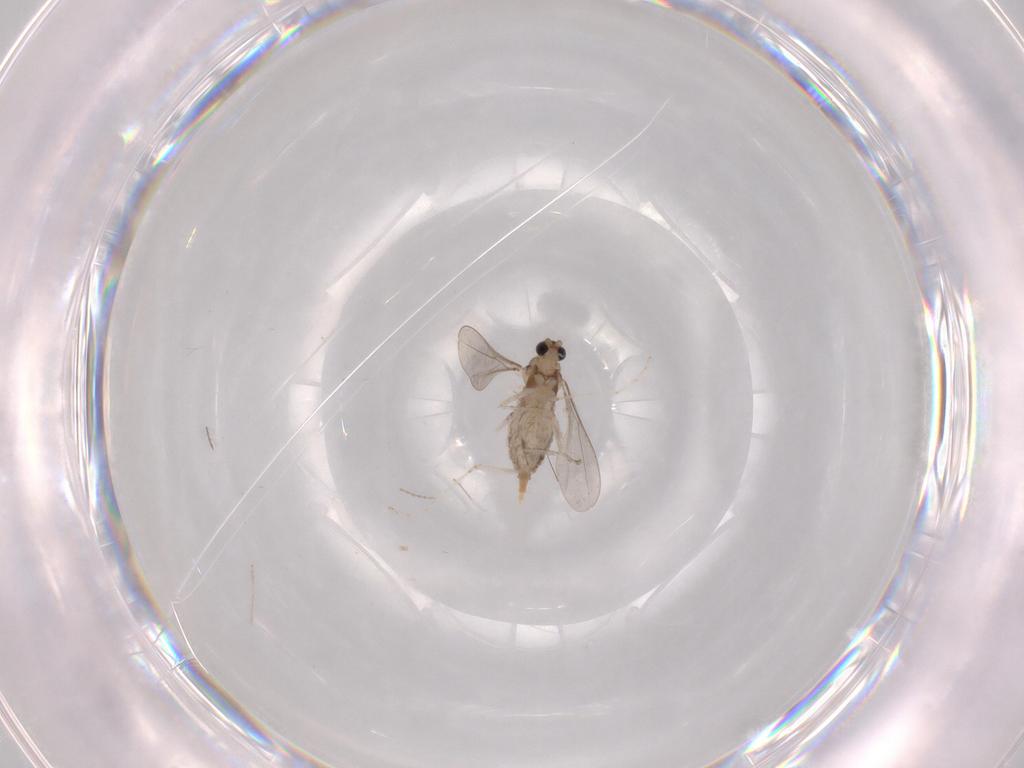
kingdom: Animalia
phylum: Arthropoda
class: Insecta
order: Diptera
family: Chironomidae
